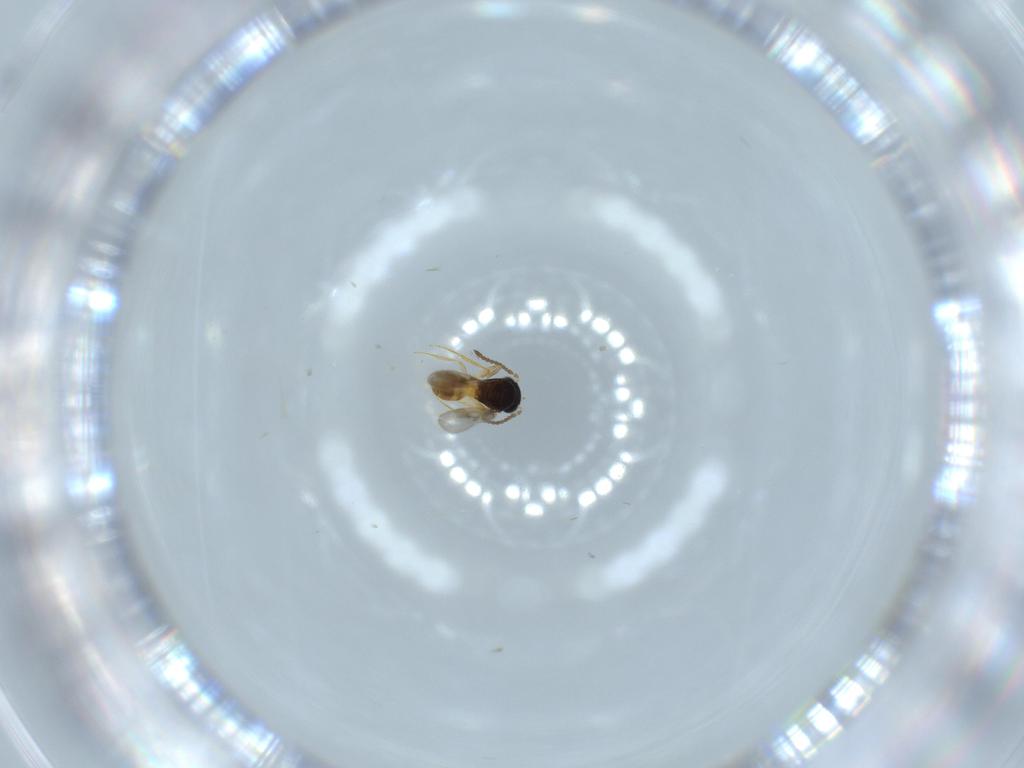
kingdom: Animalia
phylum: Arthropoda
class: Insecta
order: Hymenoptera
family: Scelionidae
